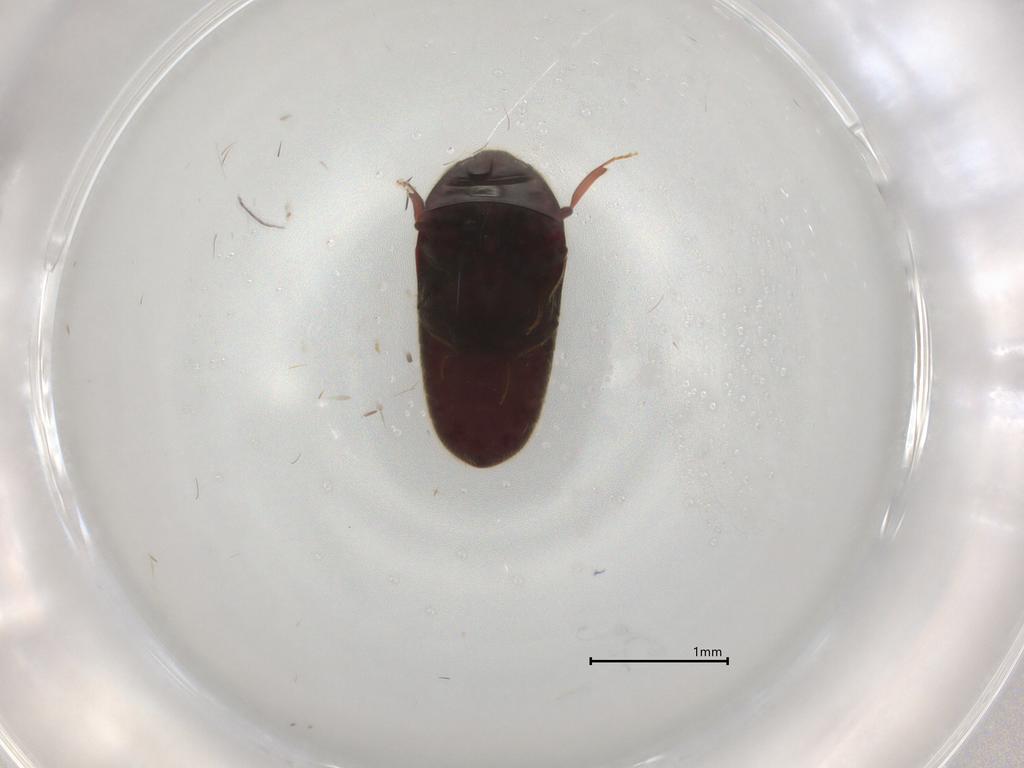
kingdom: Animalia
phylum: Arthropoda
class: Insecta
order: Coleoptera
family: Throscidae
